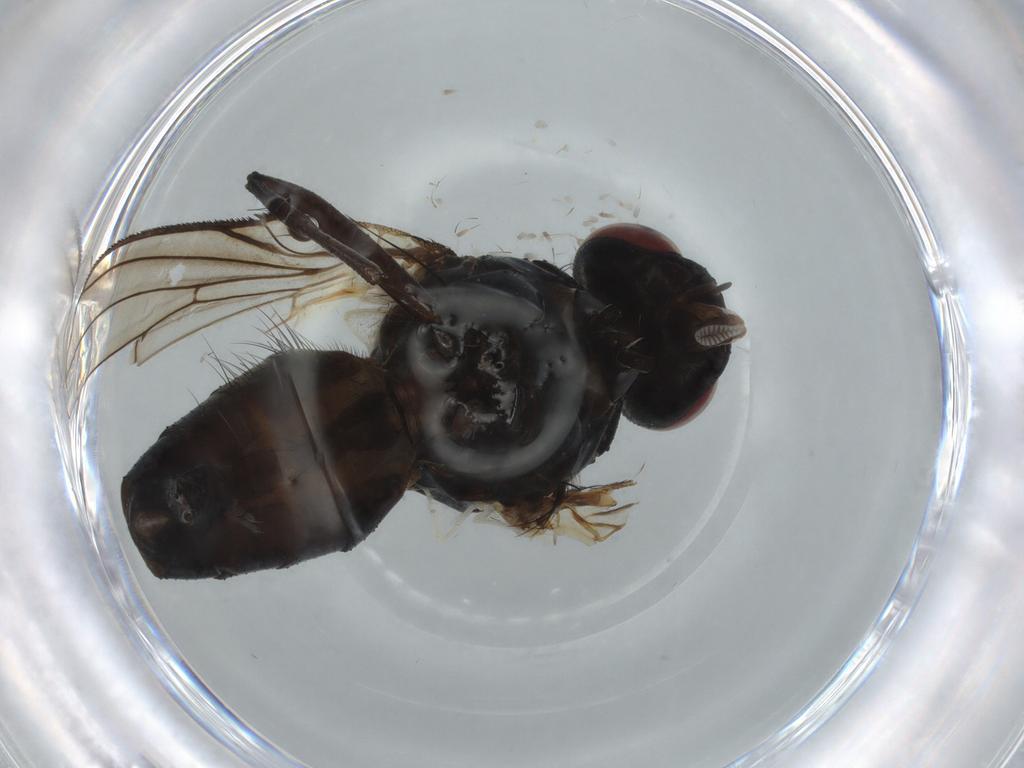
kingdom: Animalia
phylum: Arthropoda
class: Insecta
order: Diptera
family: Muscidae
